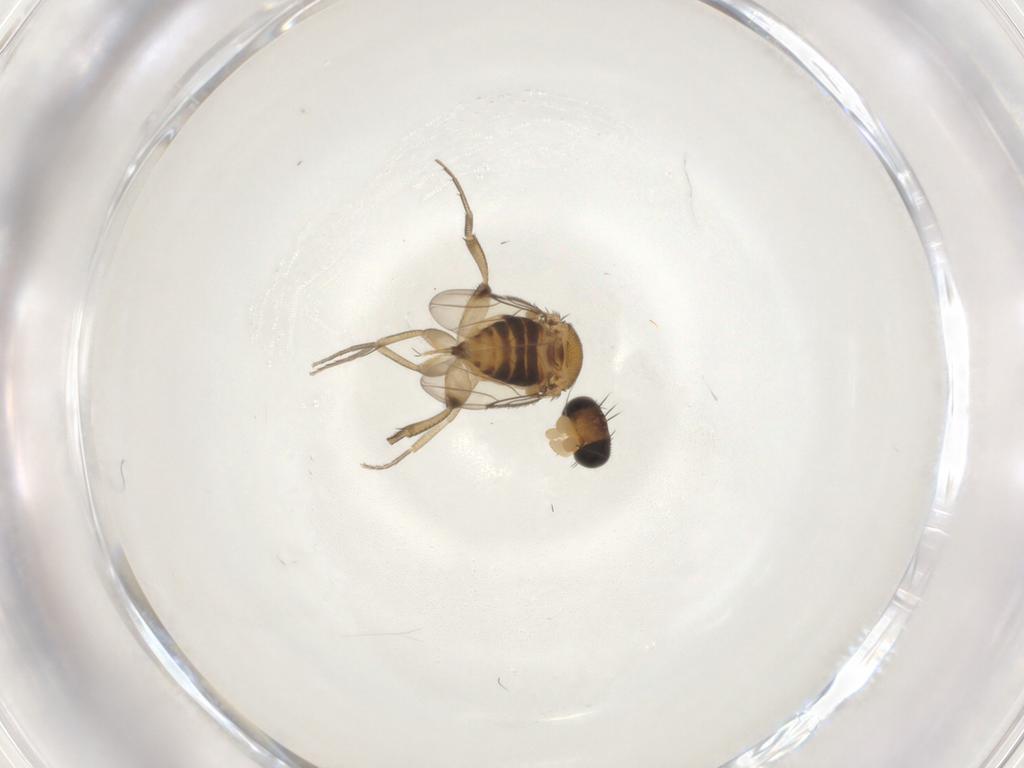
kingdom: Animalia
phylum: Arthropoda
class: Insecta
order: Diptera
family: Phoridae
